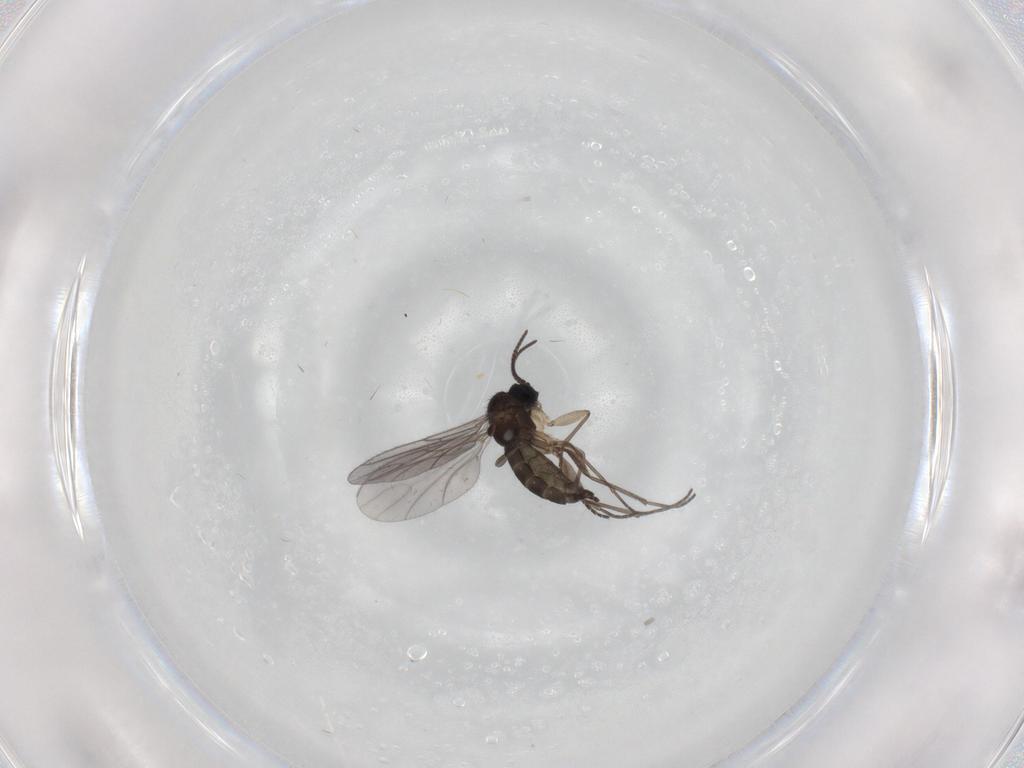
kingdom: Animalia
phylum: Arthropoda
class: Insecta
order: Diptera
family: Sciaridae
